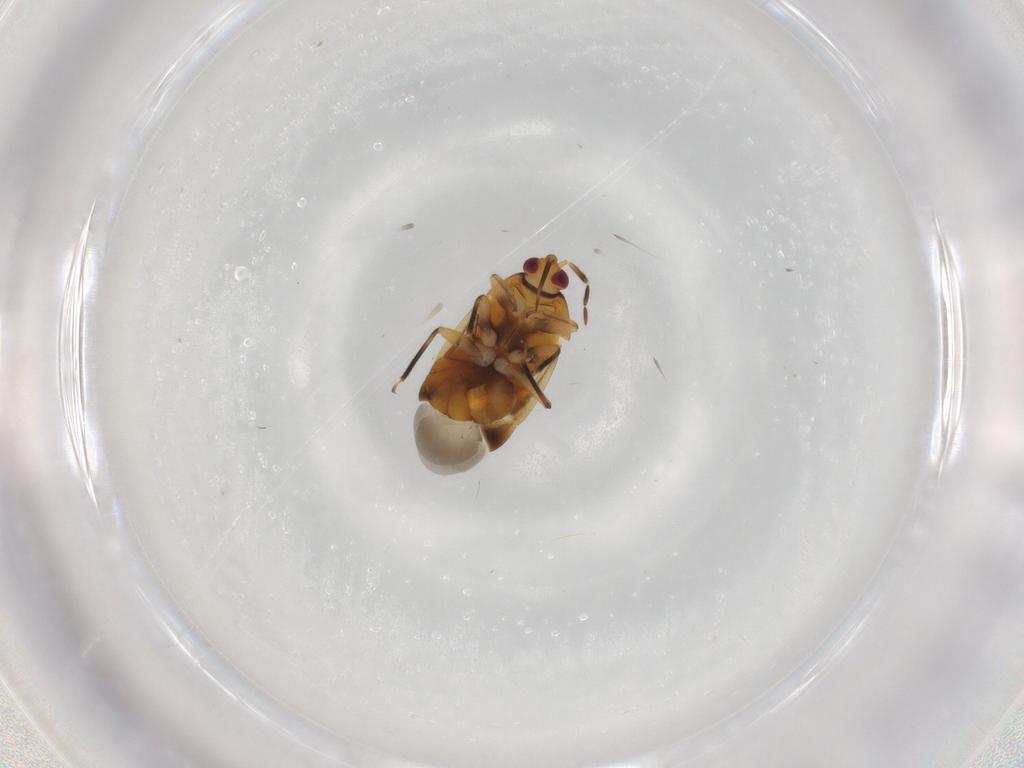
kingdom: Animalia
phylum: Arthropoda
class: Insecta
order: Hemiptera
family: Anthocoridae
